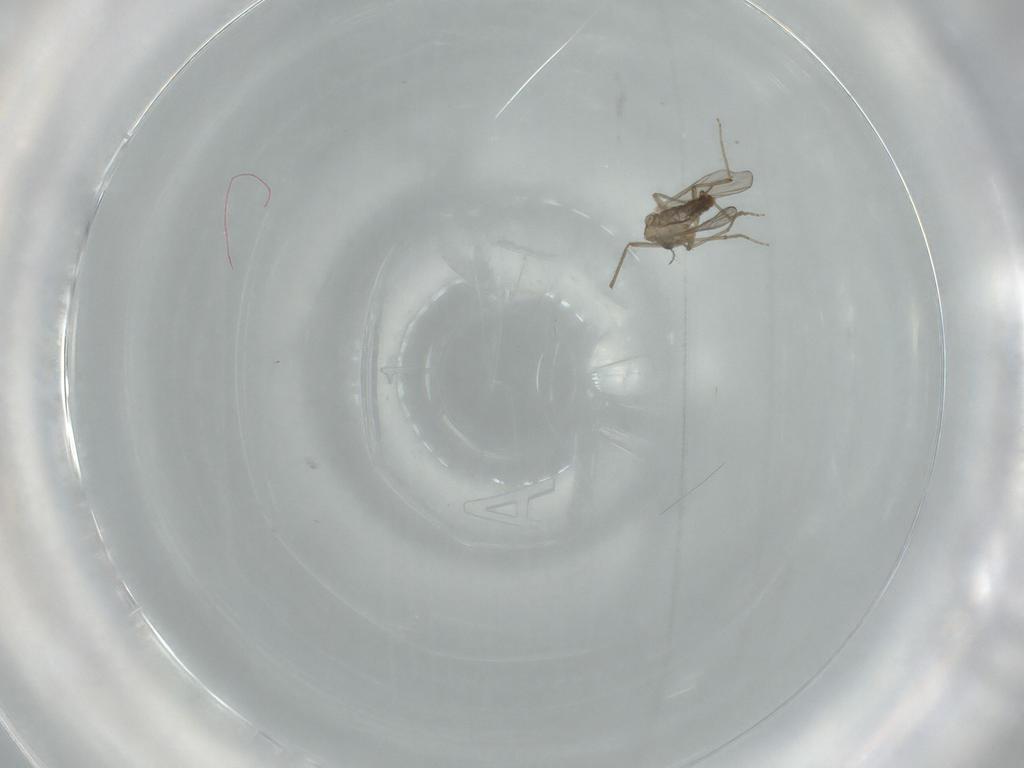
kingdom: Animalia
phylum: Arthropoda
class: Insecta
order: Diptera
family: Chironomidae
